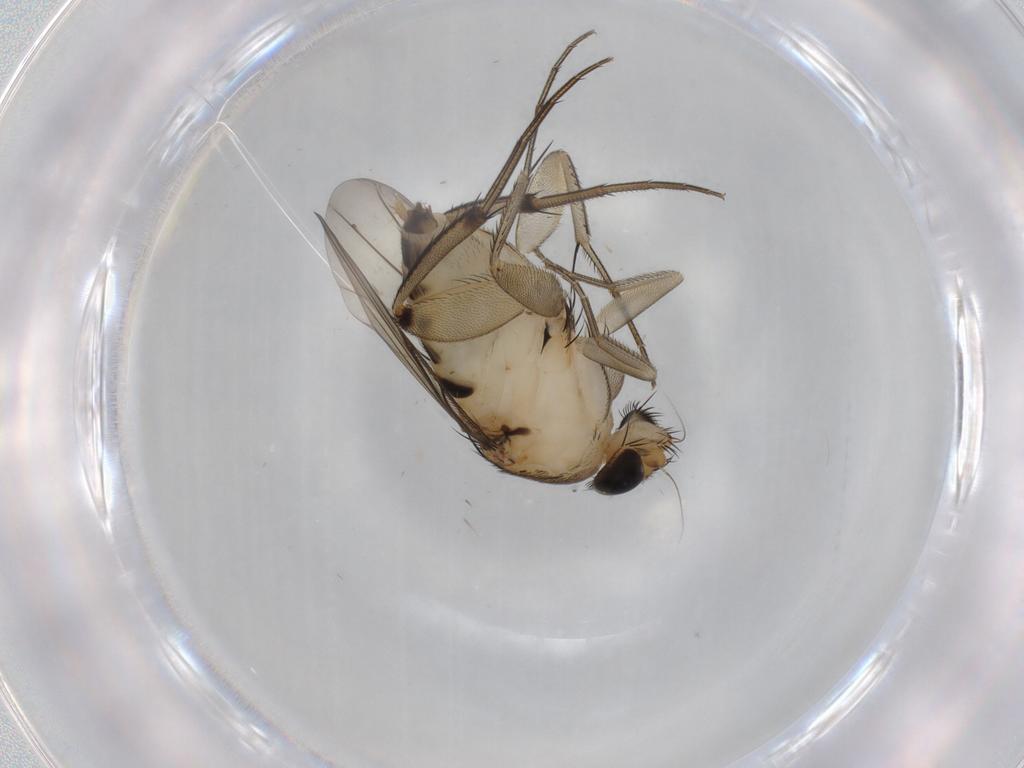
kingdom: Animalia
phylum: Arthropoda
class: Insecta
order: Diptera
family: Phoridae
